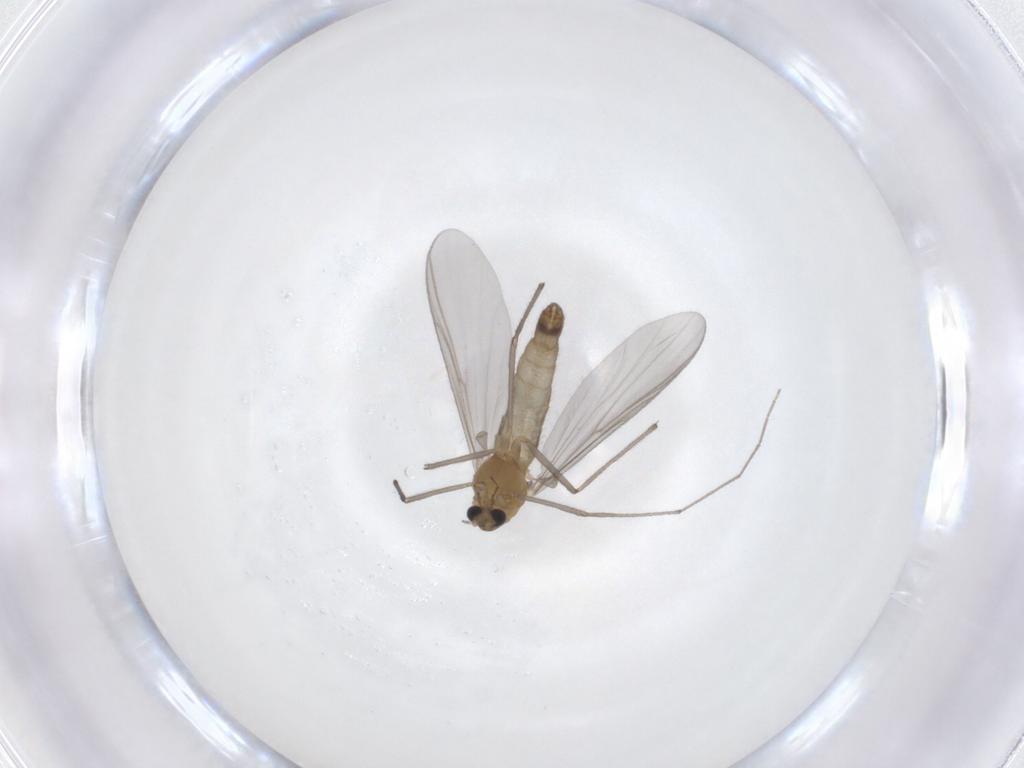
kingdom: Animalia
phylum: Arthropoda
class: Insecta
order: Diptera
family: Chironomidae
